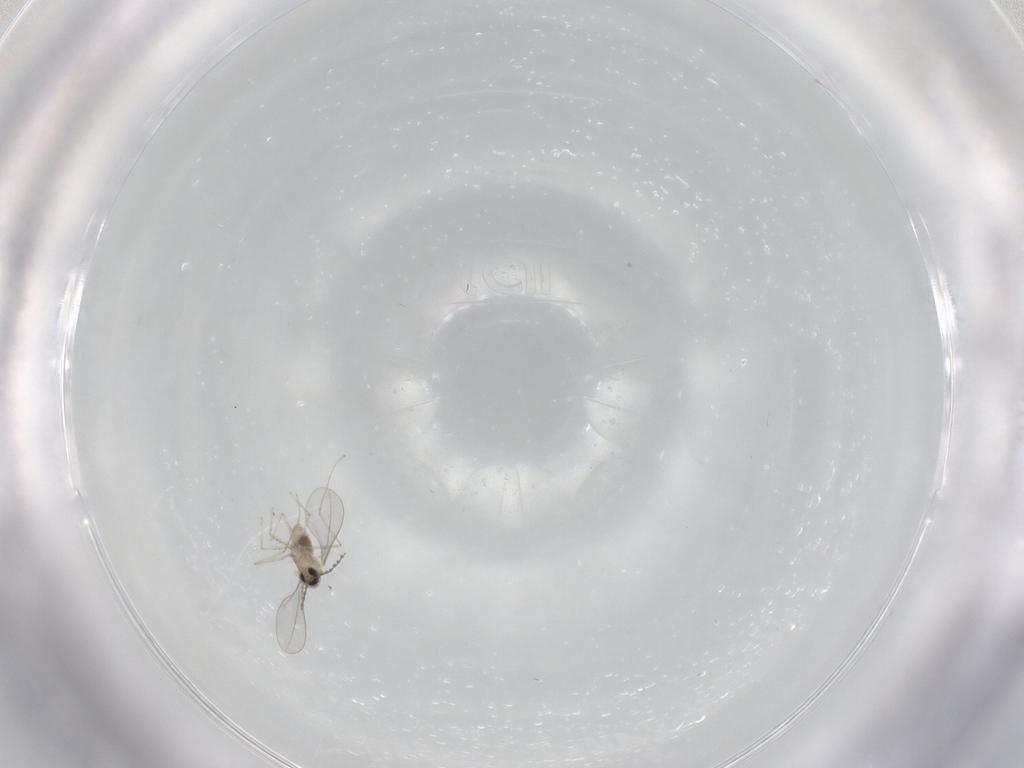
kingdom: Animalia
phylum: Arthropoda
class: Insecta
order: Diptera
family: Cecidomyiidae
